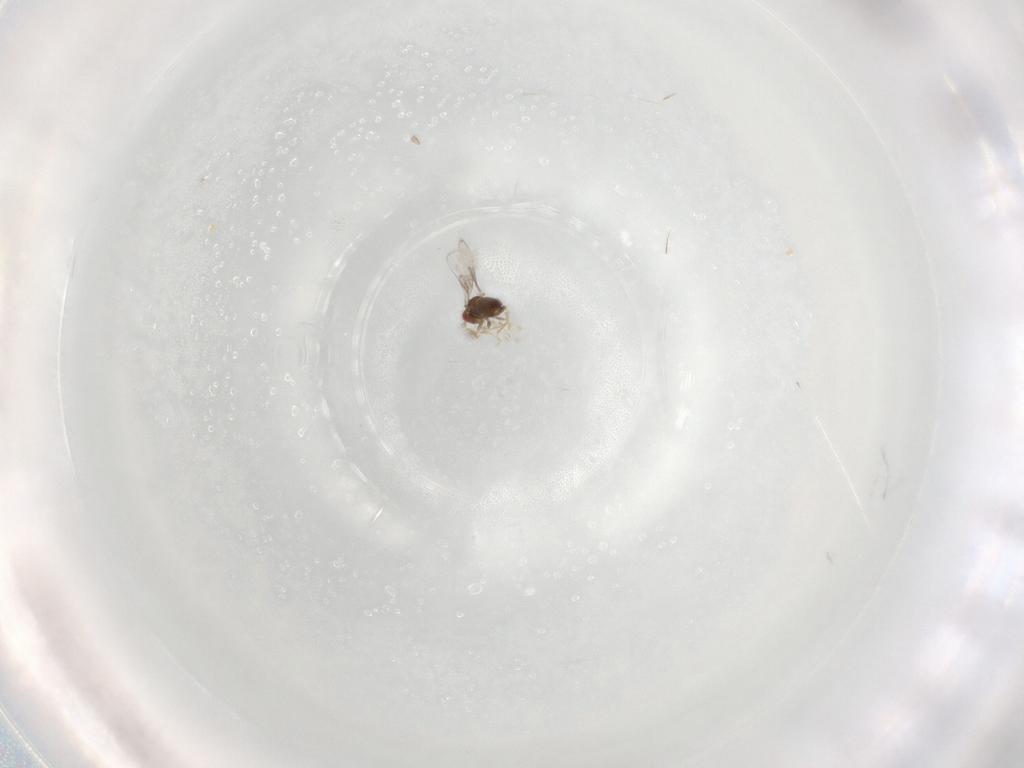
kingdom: Animalia
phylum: Arthropoda
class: Insecta
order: Hymenoptera
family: Trichogrammatidae
